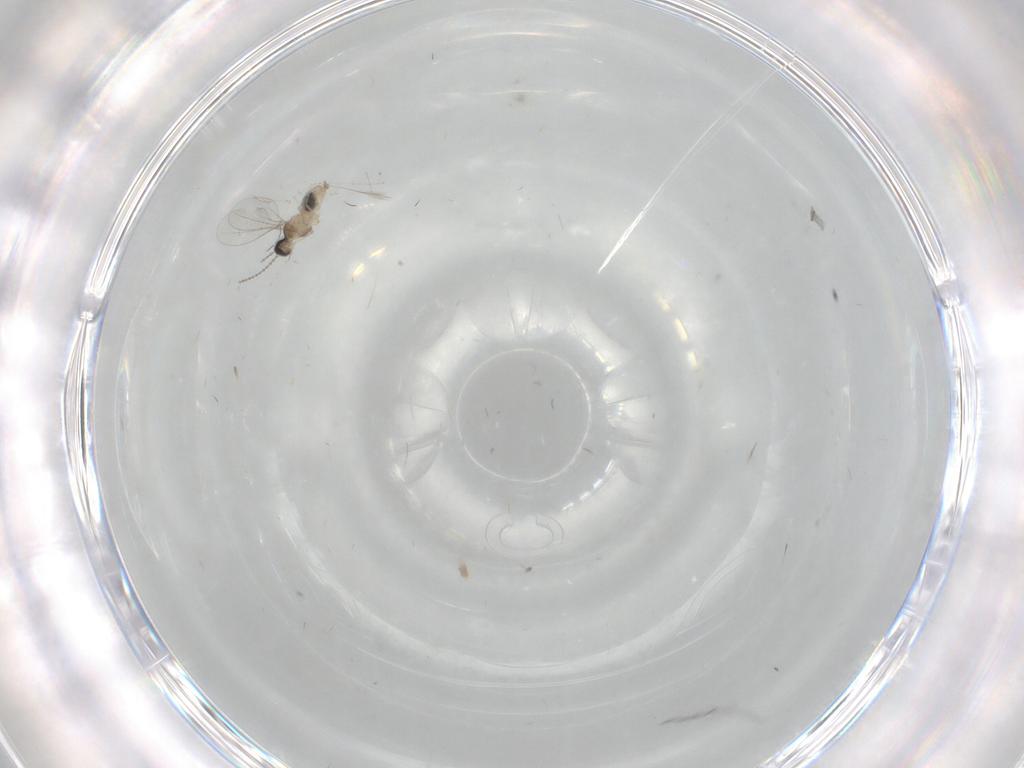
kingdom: Animalia
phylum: Arthropoda
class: Insecta
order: Diptera
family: Cecidomyiidae
